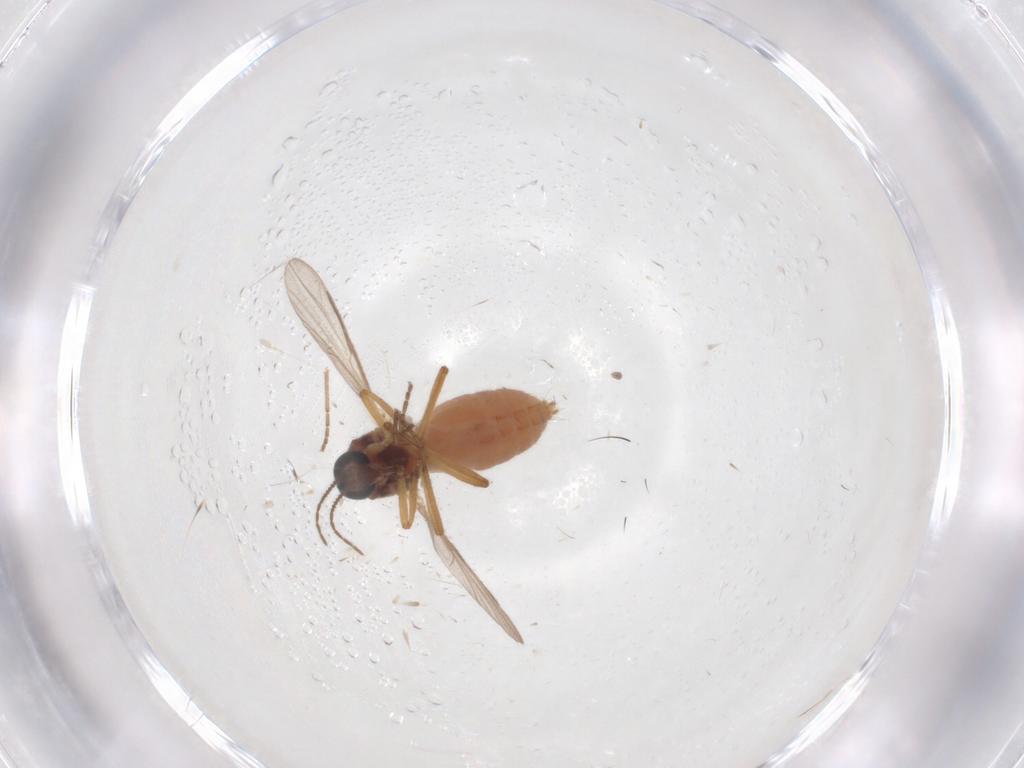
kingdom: Animalia
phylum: Arthropoda
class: Insecta
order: Diptera
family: Ceratopogonidae
